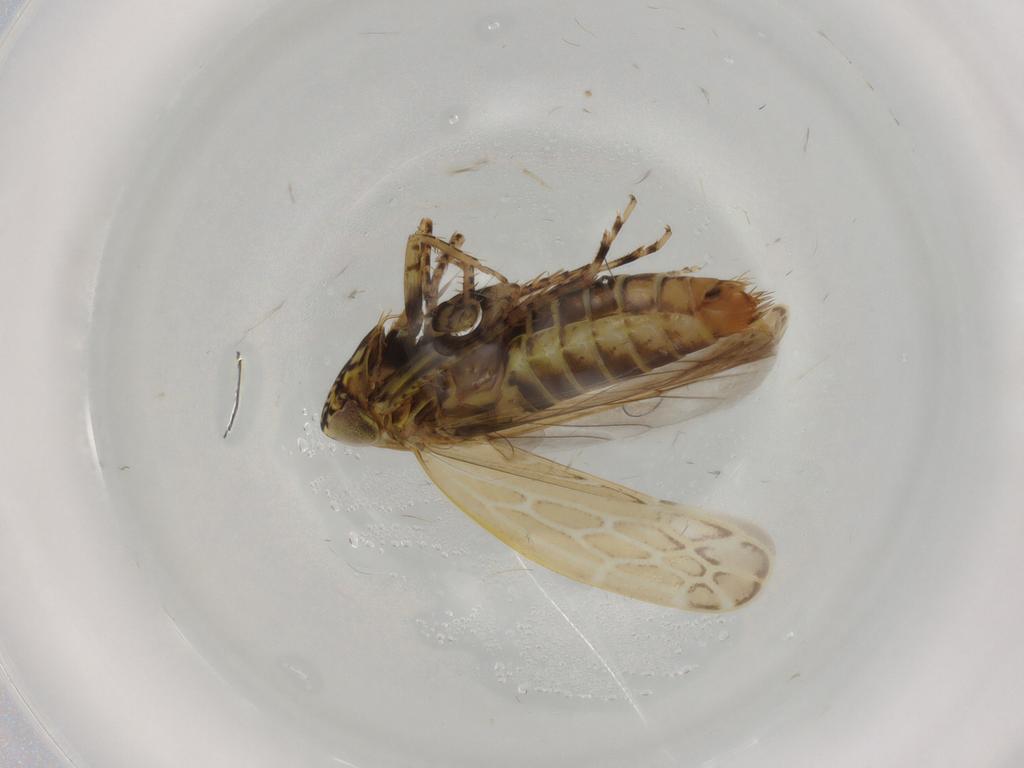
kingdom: Animalia
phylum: Arthropoda
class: Insecta
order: Hemiptera
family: Cicadellidae
